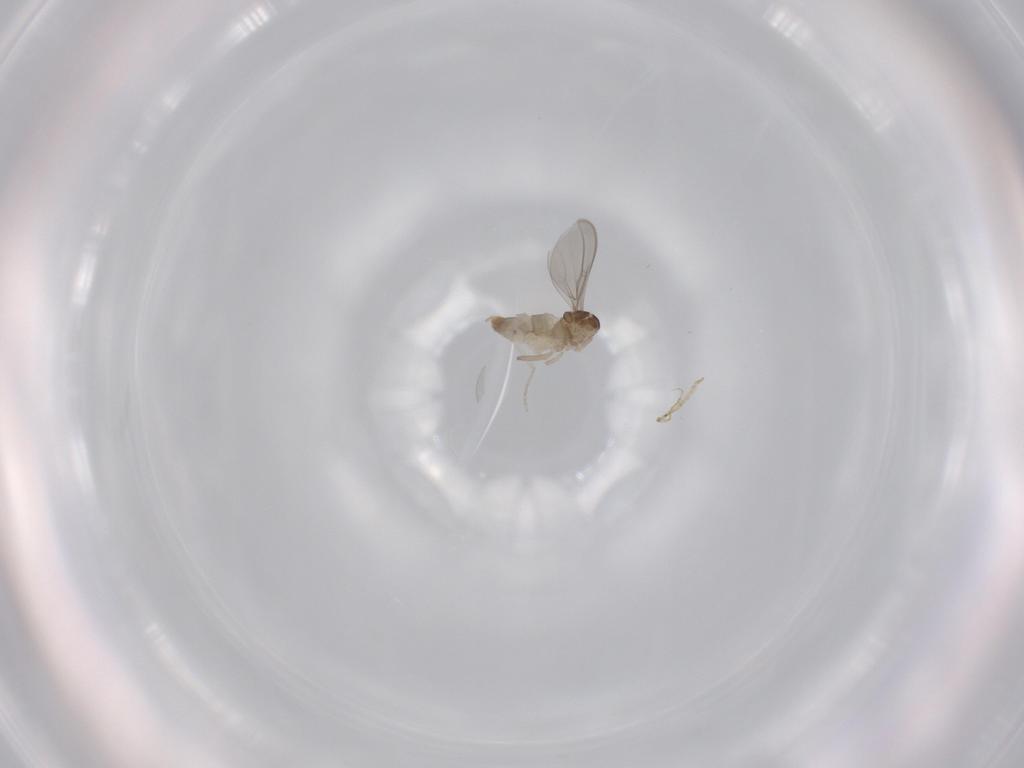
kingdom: Animalia
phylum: Arthropoda
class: Insecta
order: Diptera
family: Cecidomyiidae
